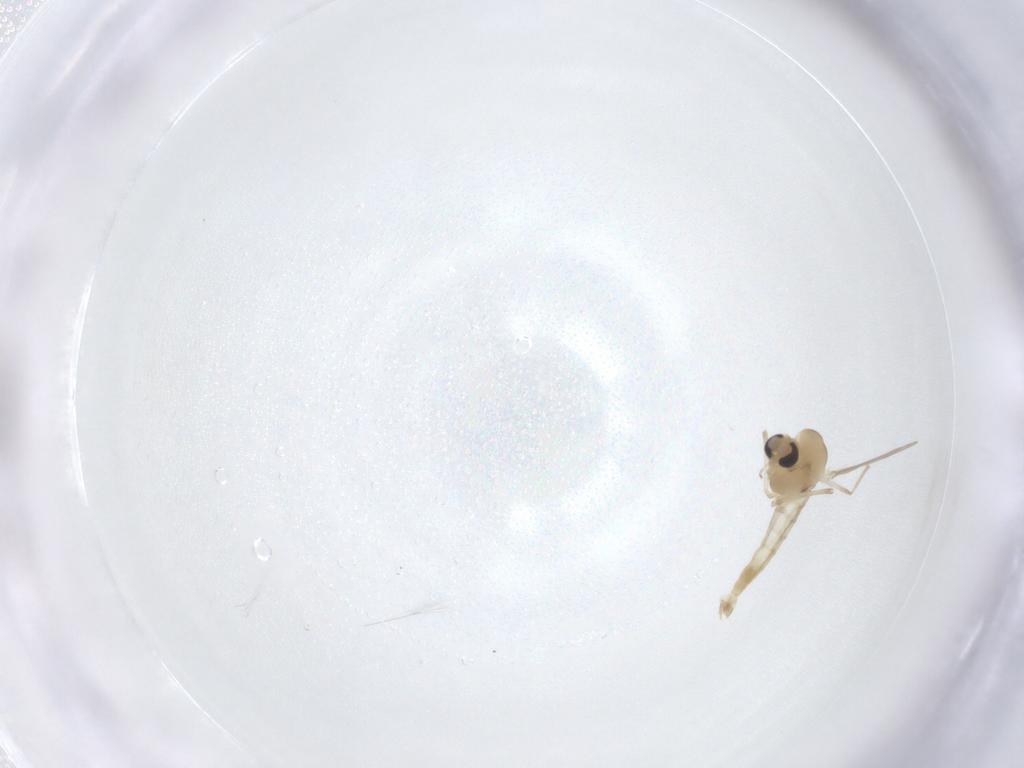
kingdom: Animalia
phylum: Arthropoda
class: Insecta
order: Diptera
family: Chironomidae
